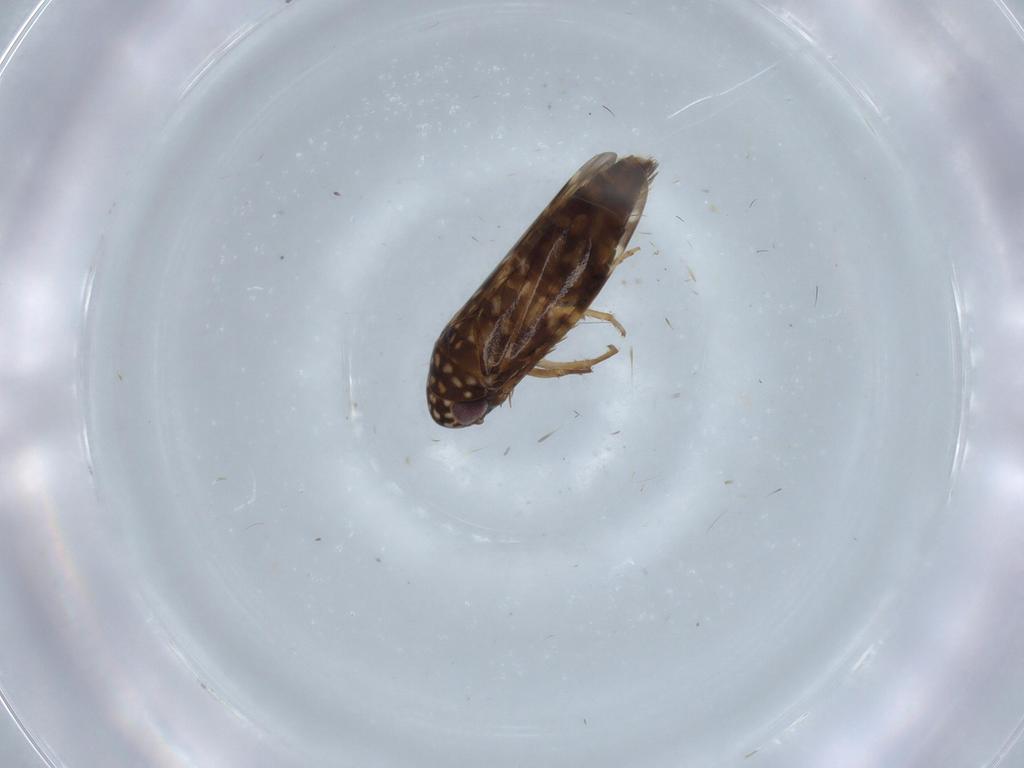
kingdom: Animalia
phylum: Arthropoda
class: Insecta
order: Hemiptera
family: Cicadellidae
